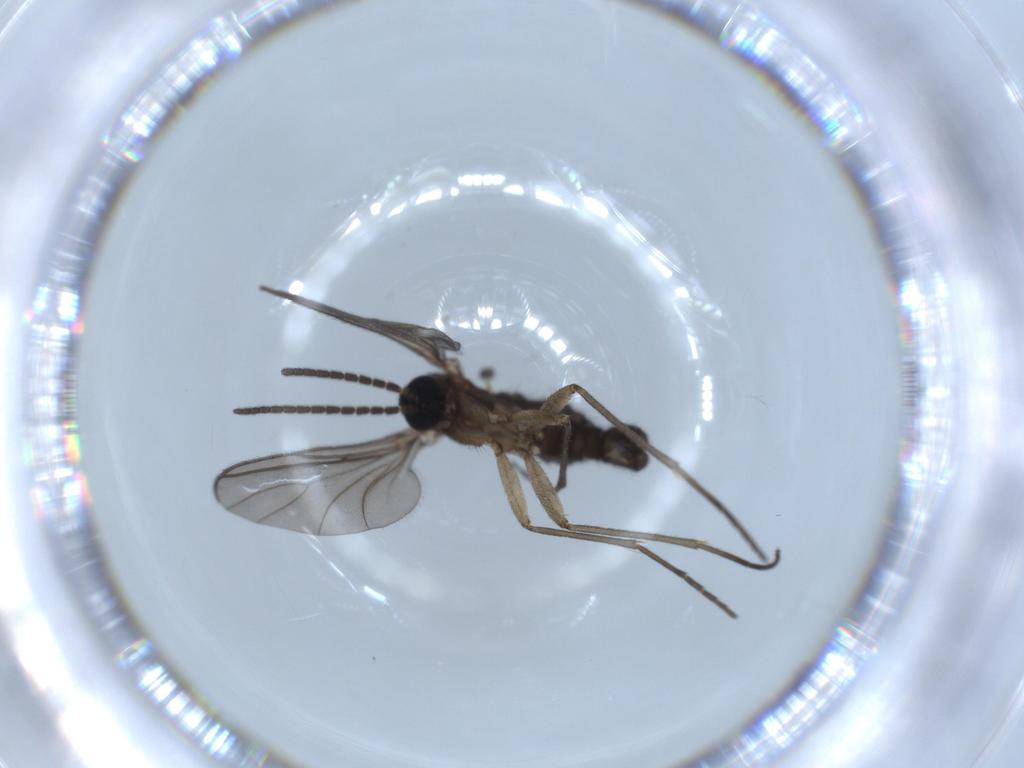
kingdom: Animalia
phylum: Arthropoda
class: Insecta
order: Diptera
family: Sciaridae
